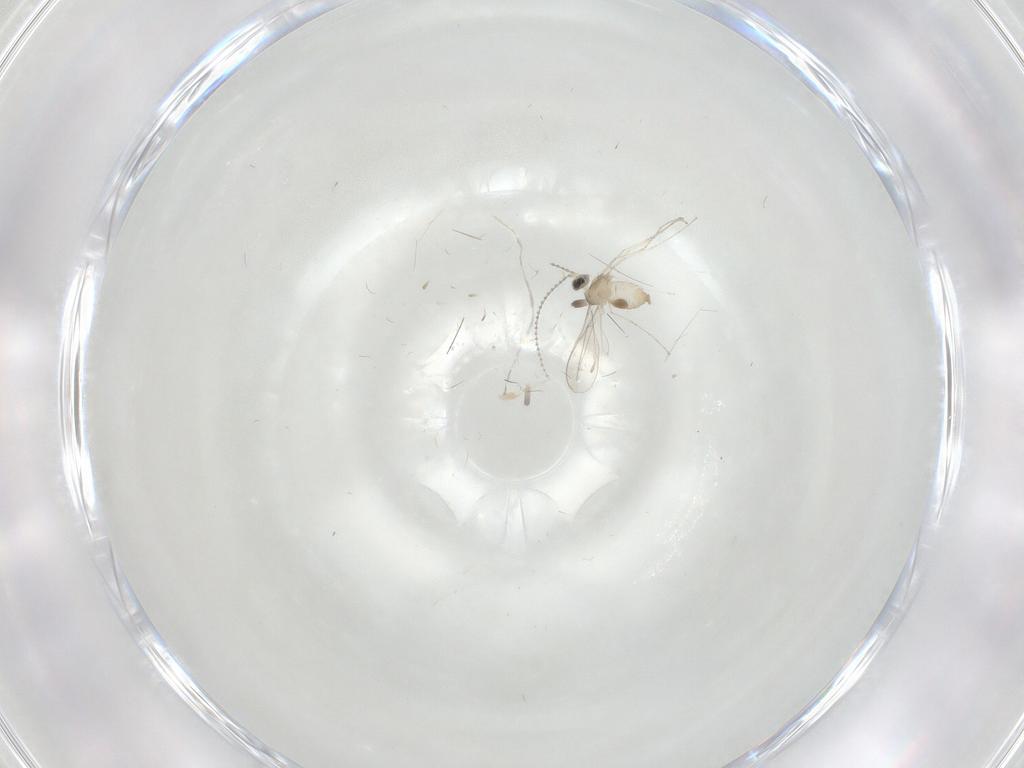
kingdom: Animalia
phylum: Arthropoda
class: Insecta
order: Diptera
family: Cecidomyiidae
